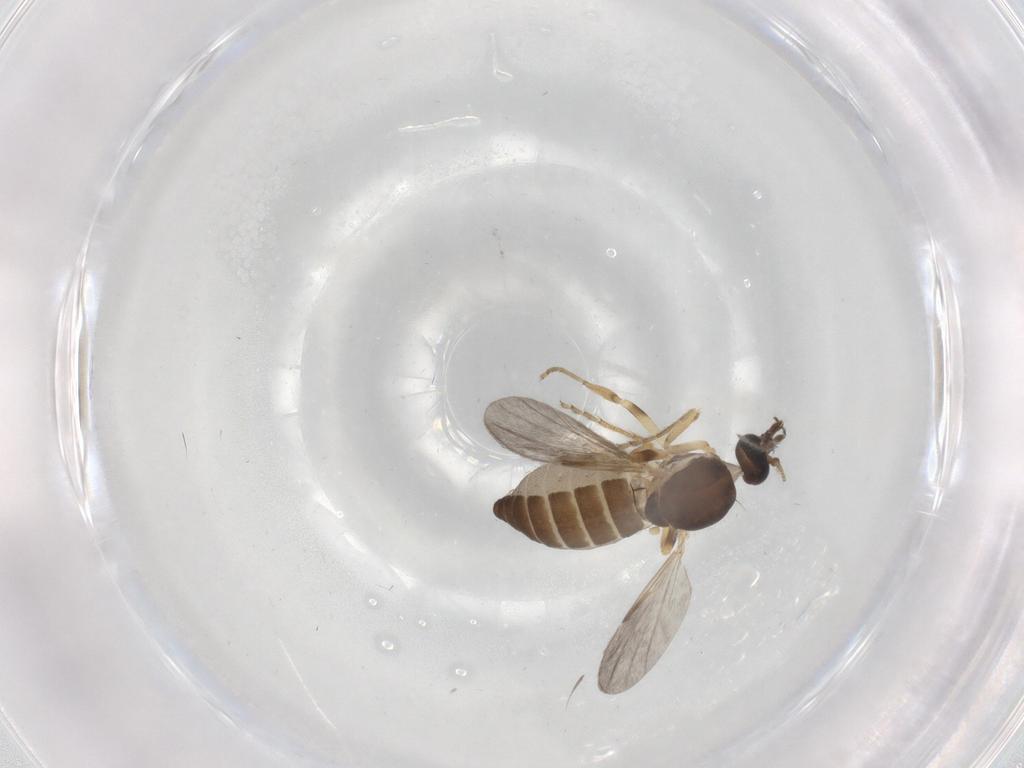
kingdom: Animalia
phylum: Arthropoda
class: Insecta
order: Diptera
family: Ceratopogonidae
